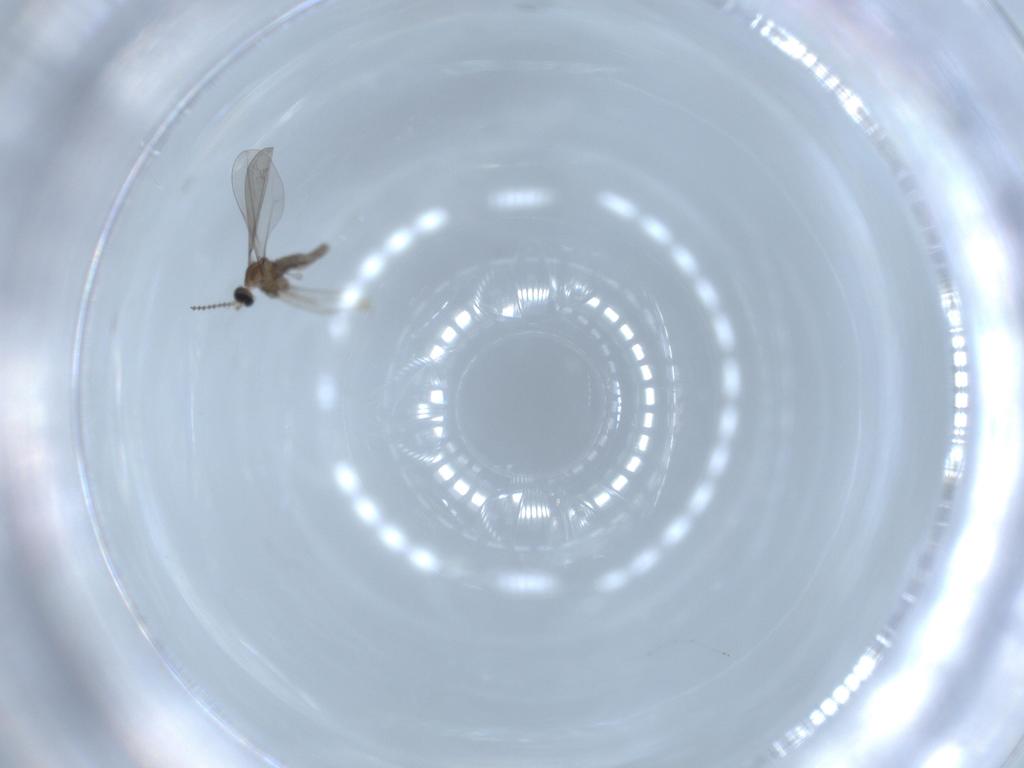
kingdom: Animalia
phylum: Arthropoda
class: Insecta
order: Diptera
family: Cecidomyiidae
